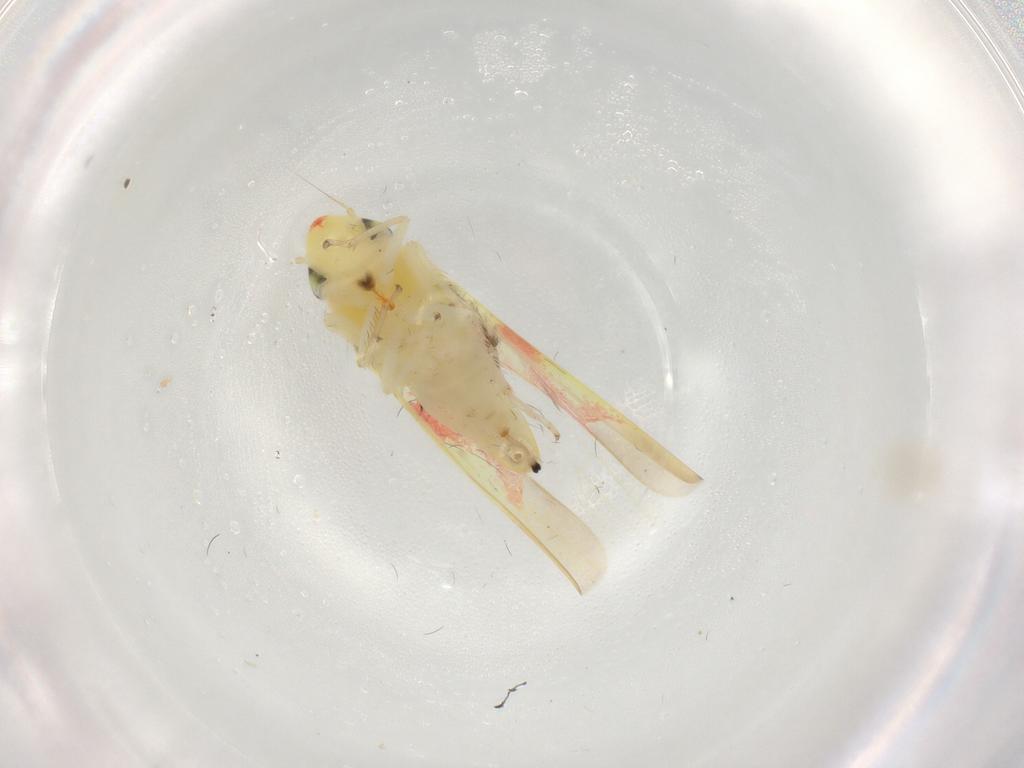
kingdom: Animalia
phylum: Arthropoda
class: Insecta
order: Hemiptera
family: Cicadellidae
